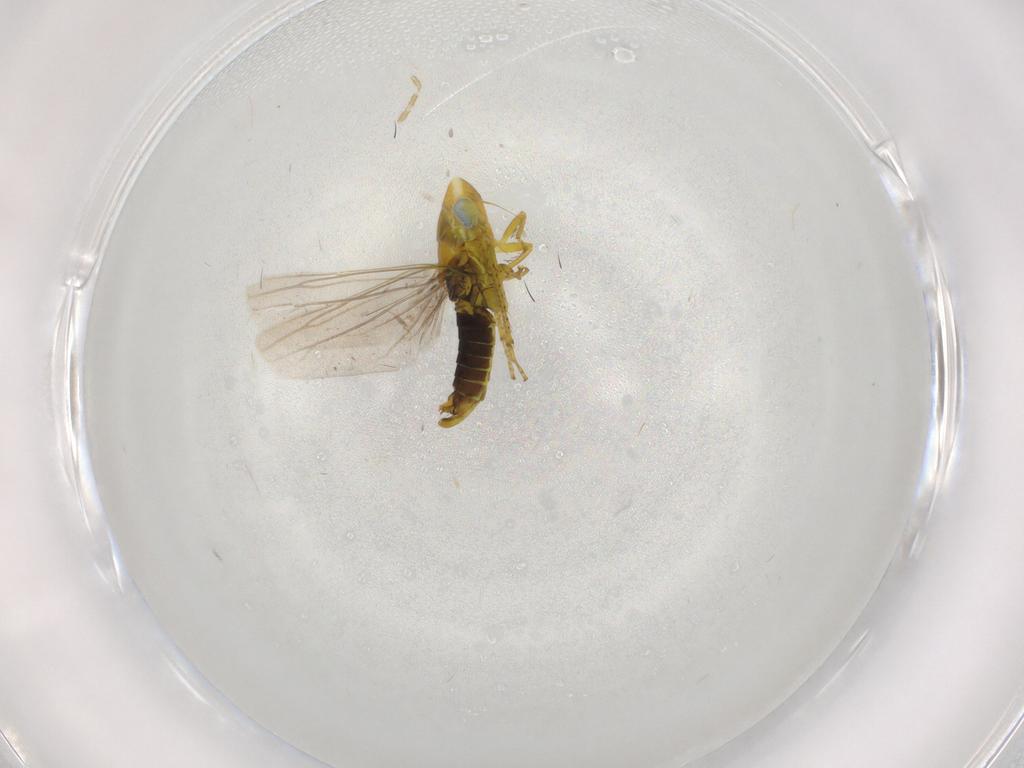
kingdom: Animalia
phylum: Arthropoda
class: Insecta
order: Hemiptera
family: Cicadellidae
